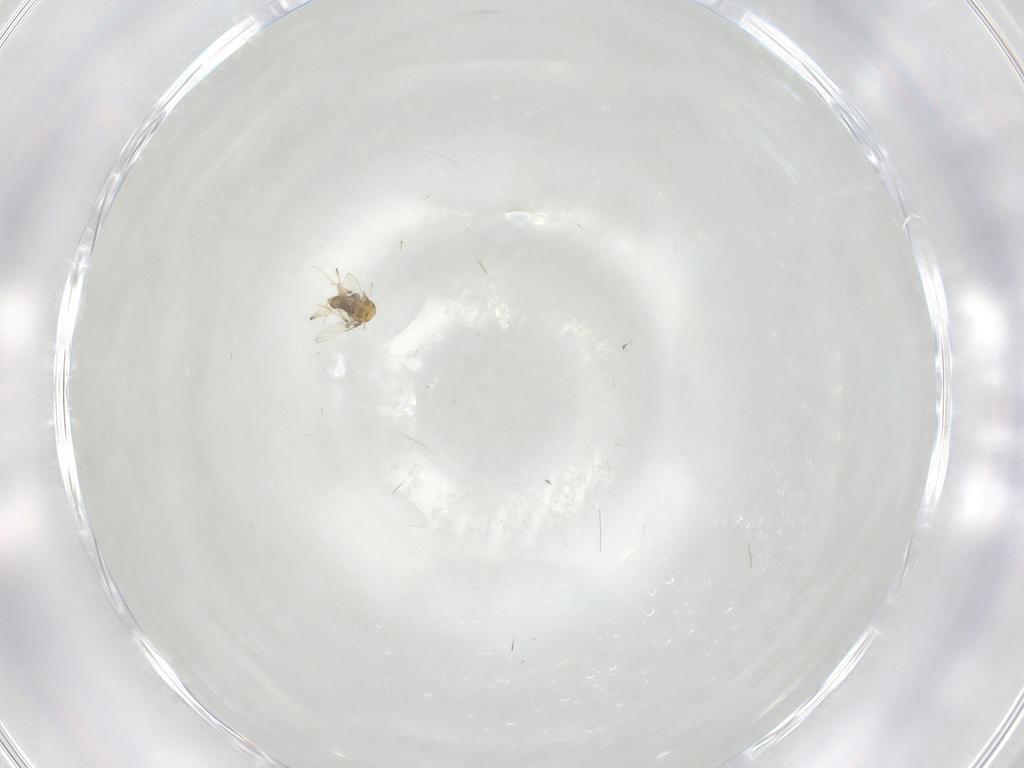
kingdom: Animalia
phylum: Arthropoda
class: Insecta
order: Diptera
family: Chironomidae
